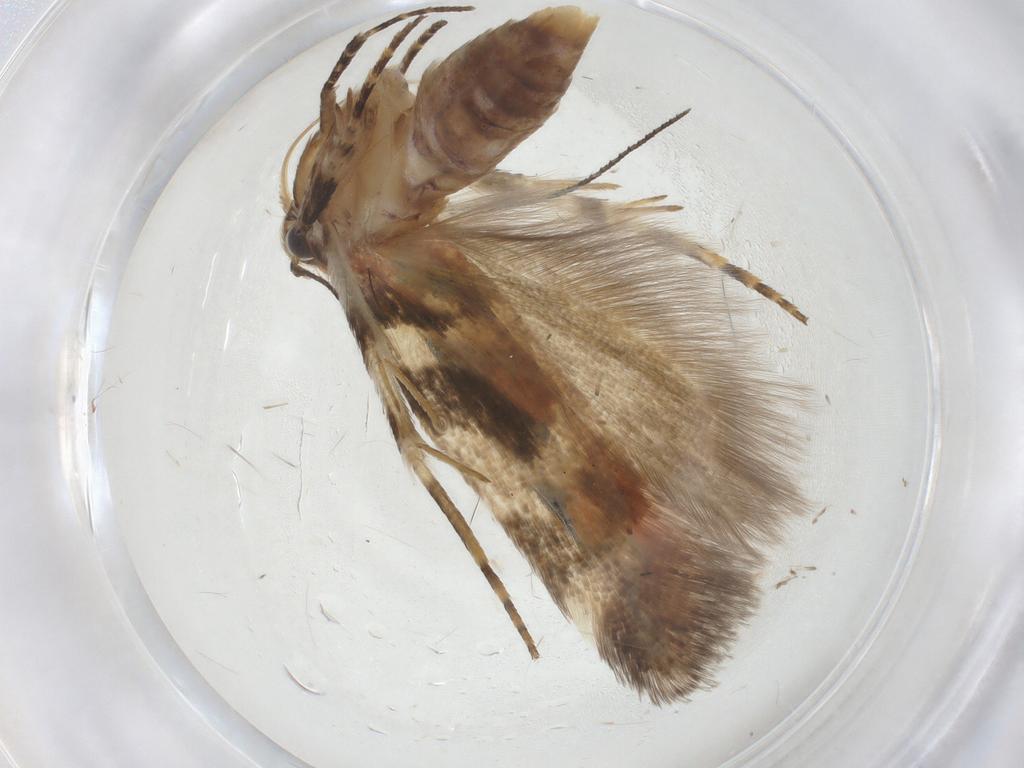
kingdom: Animalia
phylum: Arthropoda
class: Insecta
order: Lepidoptera
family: Gelechiidae
